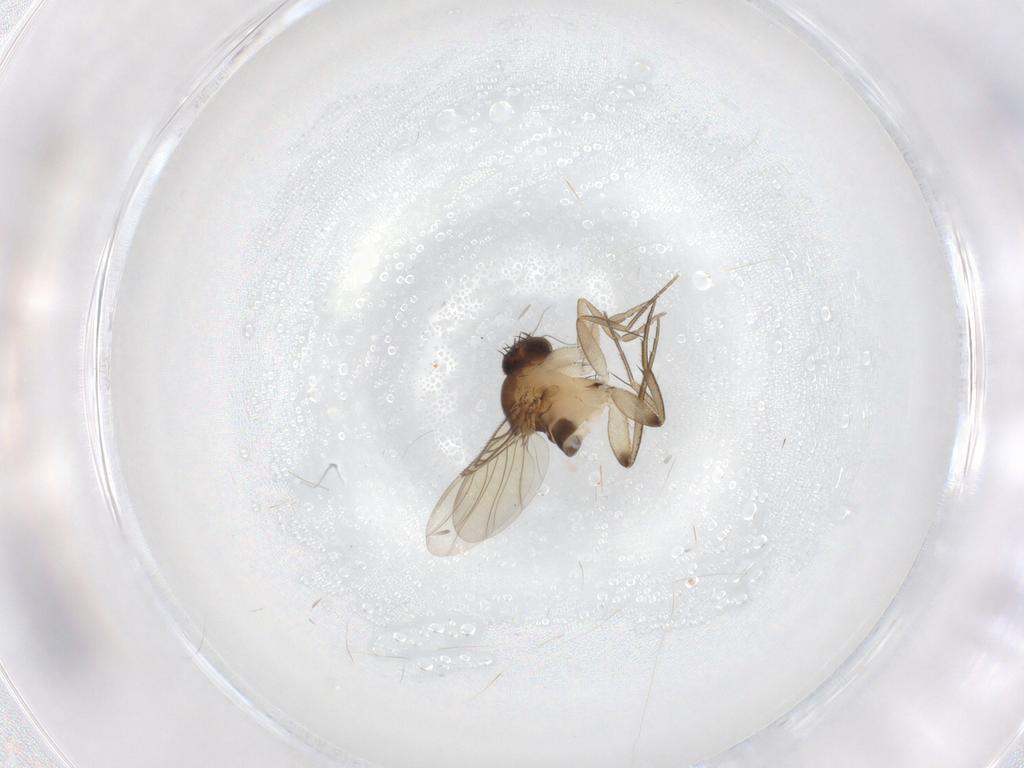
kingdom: Animalia
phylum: Arthropoda
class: Insecta
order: Diptera
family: Phoridae
